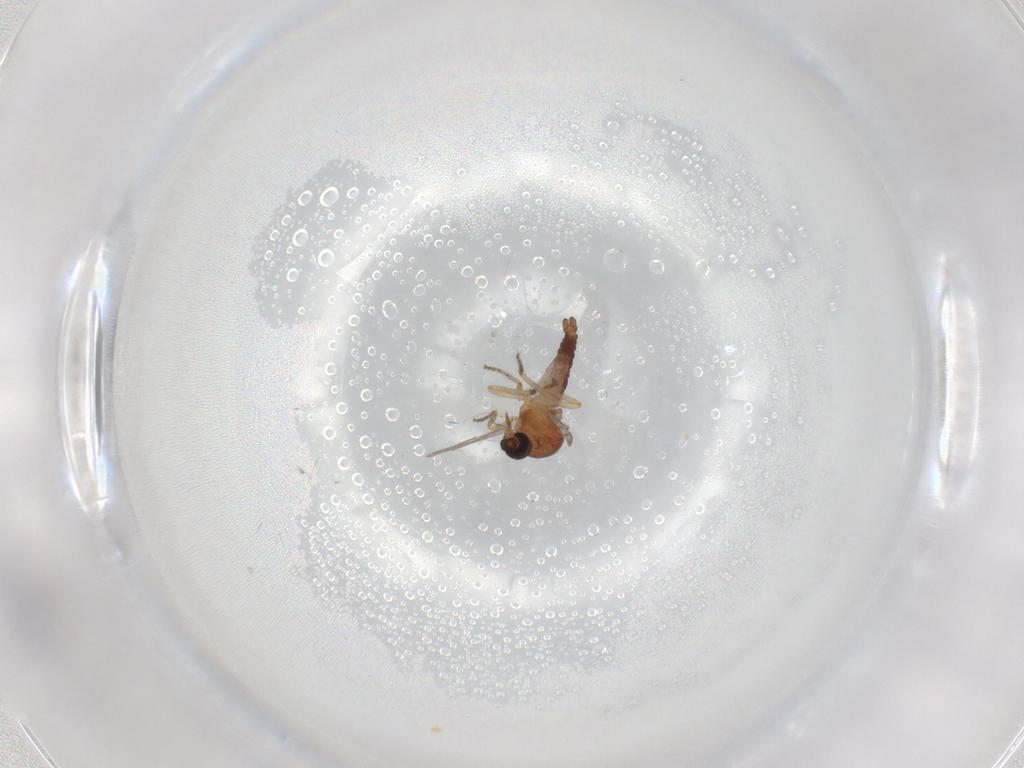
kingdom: Animalia
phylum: Arthropoda
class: Insecta
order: Diptera
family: Ceratopogonidae
